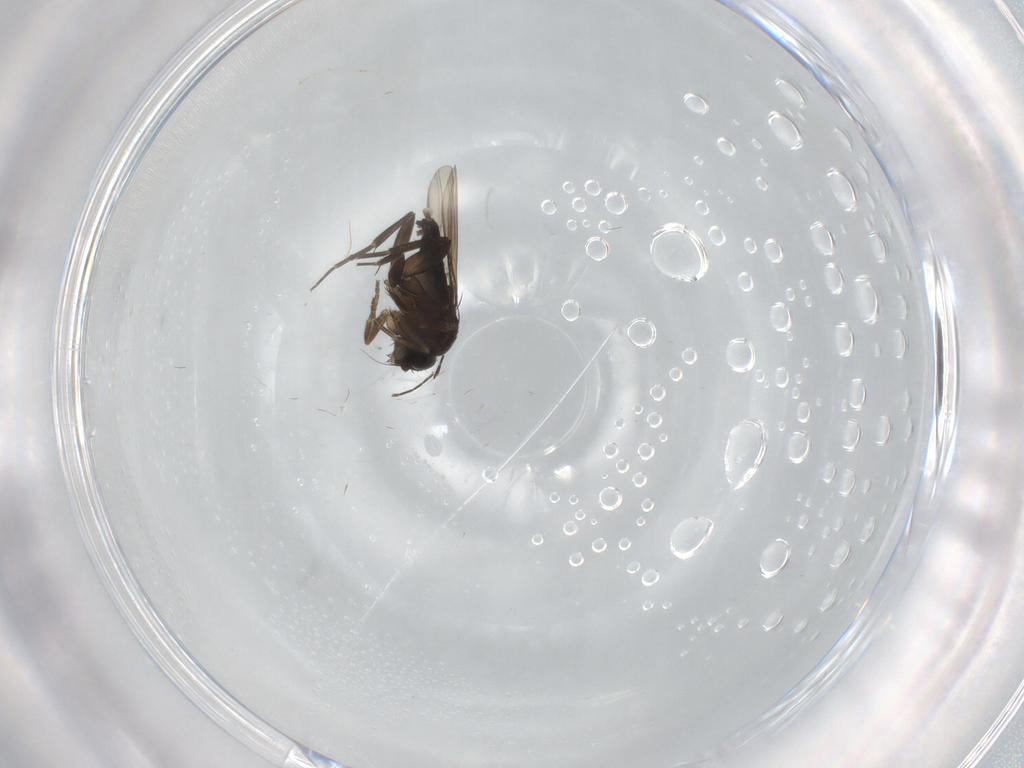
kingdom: Animalia
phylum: Arthropoda
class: Insecta
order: Diptera
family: Phoridae
